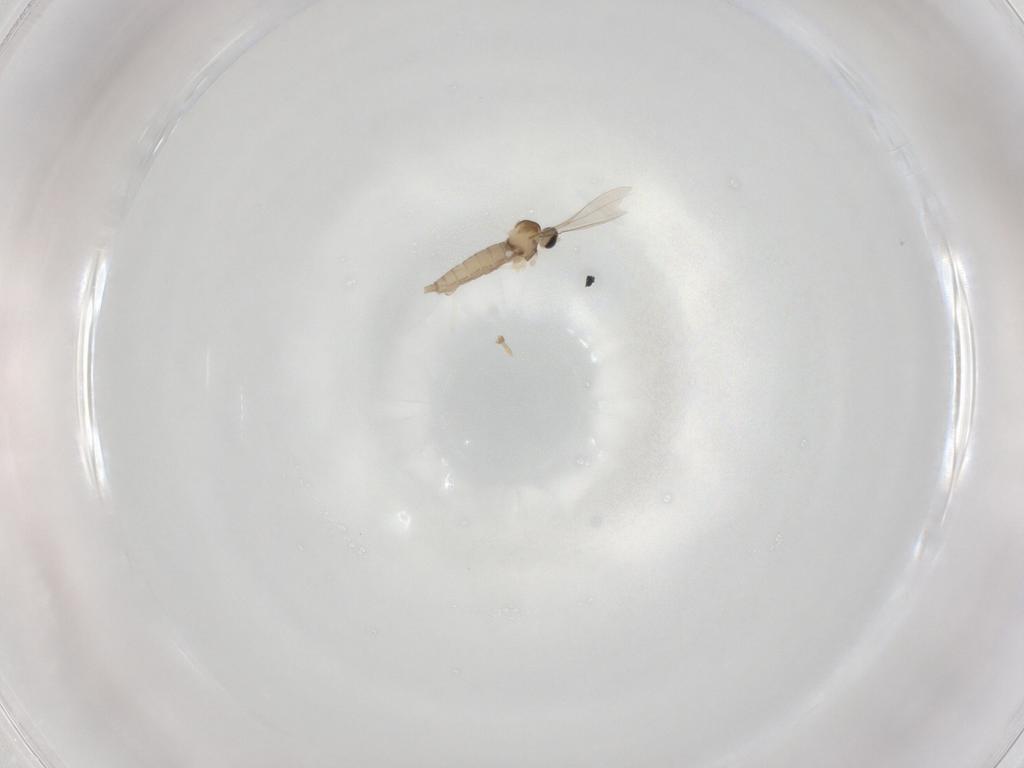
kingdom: Animalia
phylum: Arthropoda
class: Insecta
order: Diptera
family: Cecidomyiidae
